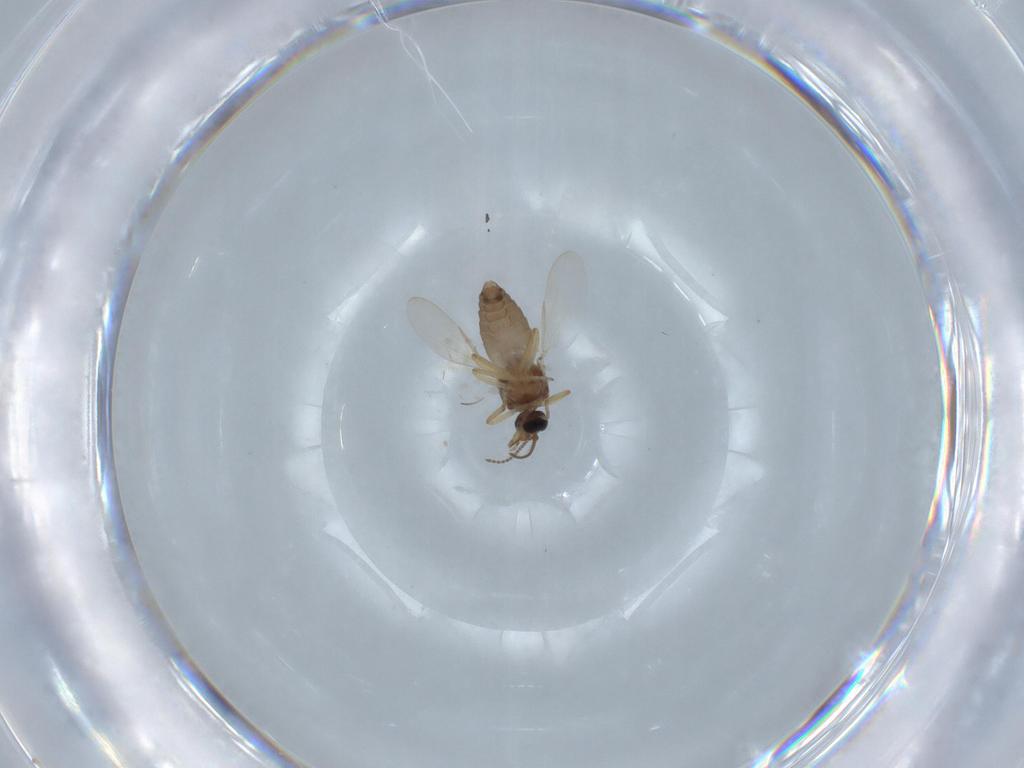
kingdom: Animalia
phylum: Arthropoda
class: Insecta
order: Diptera
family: Ceratopogonidae
